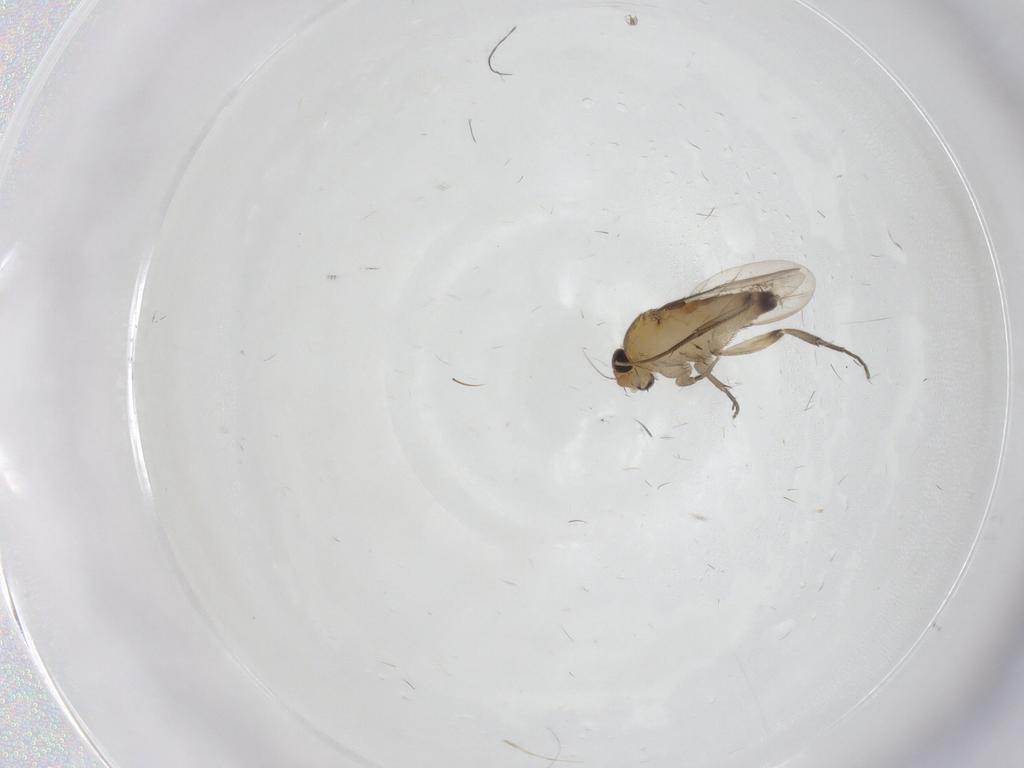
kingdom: Animalia
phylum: Arthropoda
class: Insecta
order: Diptera
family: Phoridae
